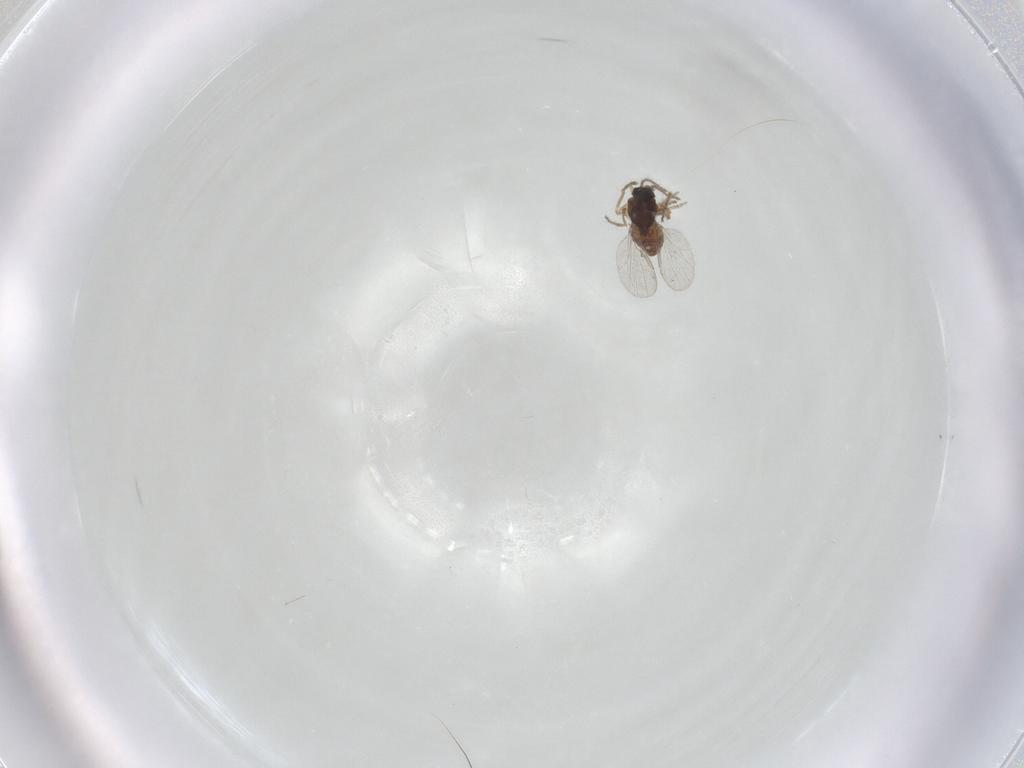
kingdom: Animalia
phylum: Arthropoda
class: Insecta
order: Diptera
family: Ceratopogonidae
